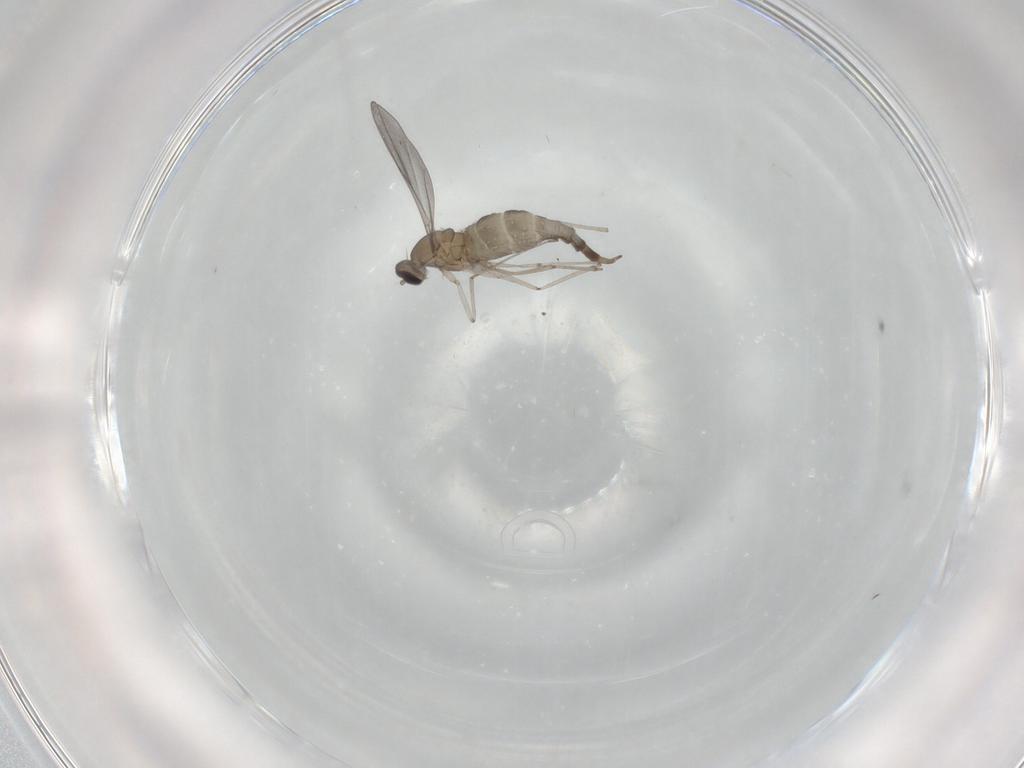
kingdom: Animalia
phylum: Arthropoda
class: Insecta
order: Diptera
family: Cecidomyiidae
